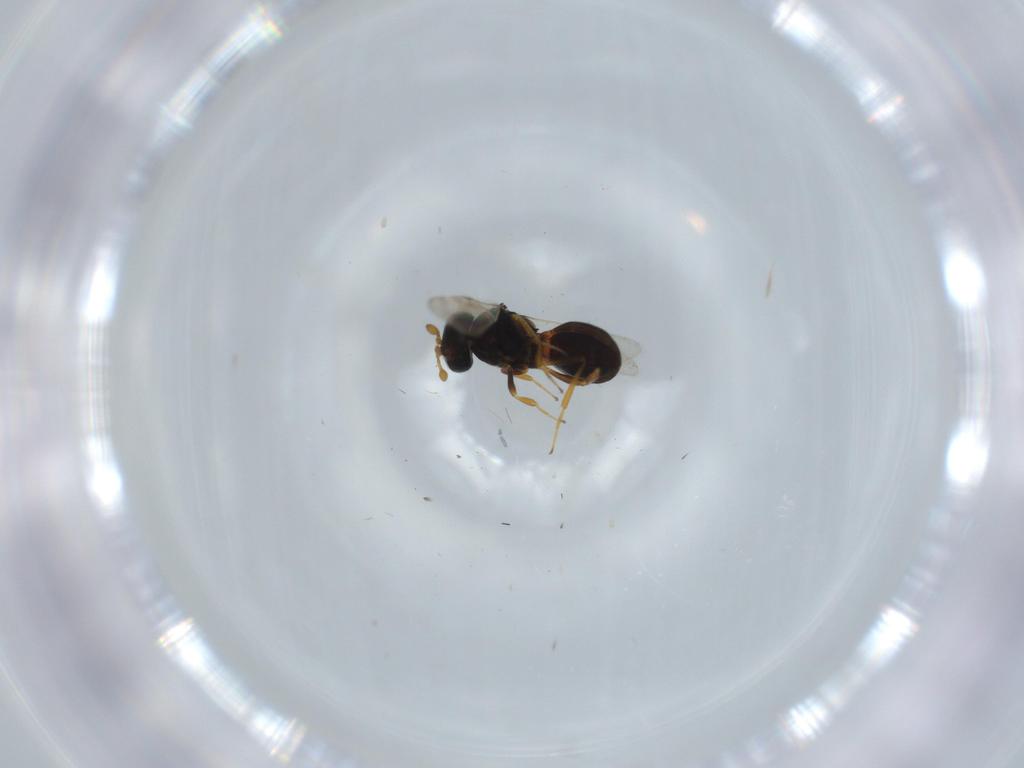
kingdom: Animalia
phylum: Arthropoda
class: Insecta
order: Hymenoptera
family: Scelionidae
